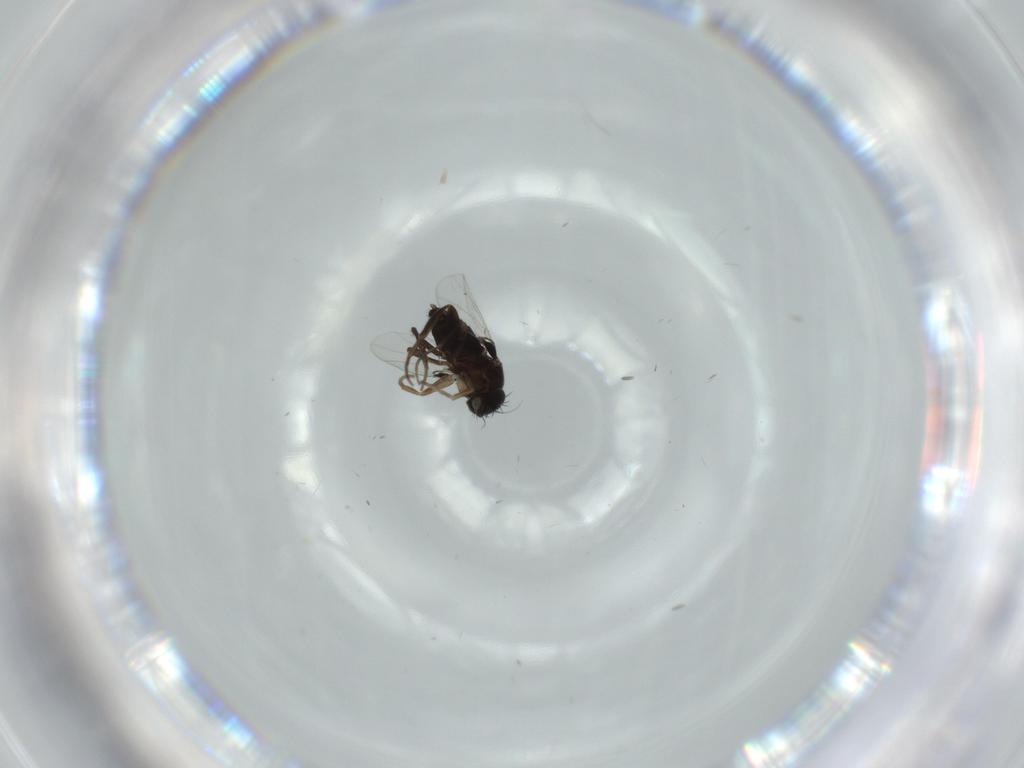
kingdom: Animalia
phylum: Arthropoda
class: Insecta
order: Diptera
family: Phoridae
